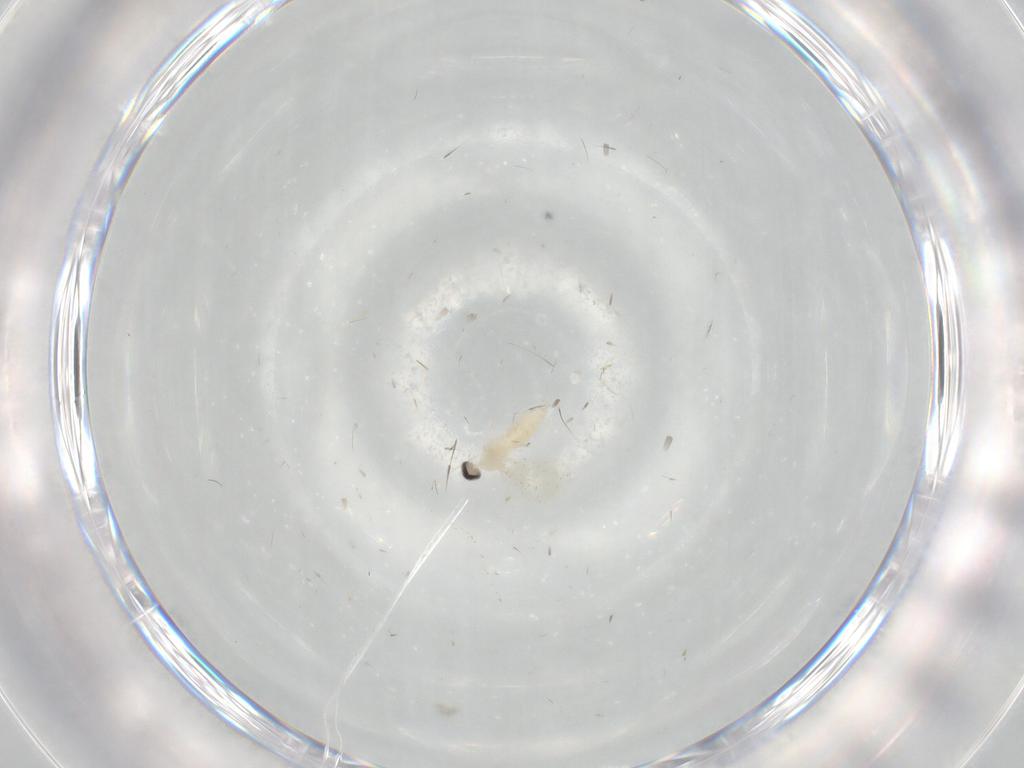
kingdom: Animalia
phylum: Arthropoda
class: Insecta
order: Diptera
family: Cecidomyiidae
